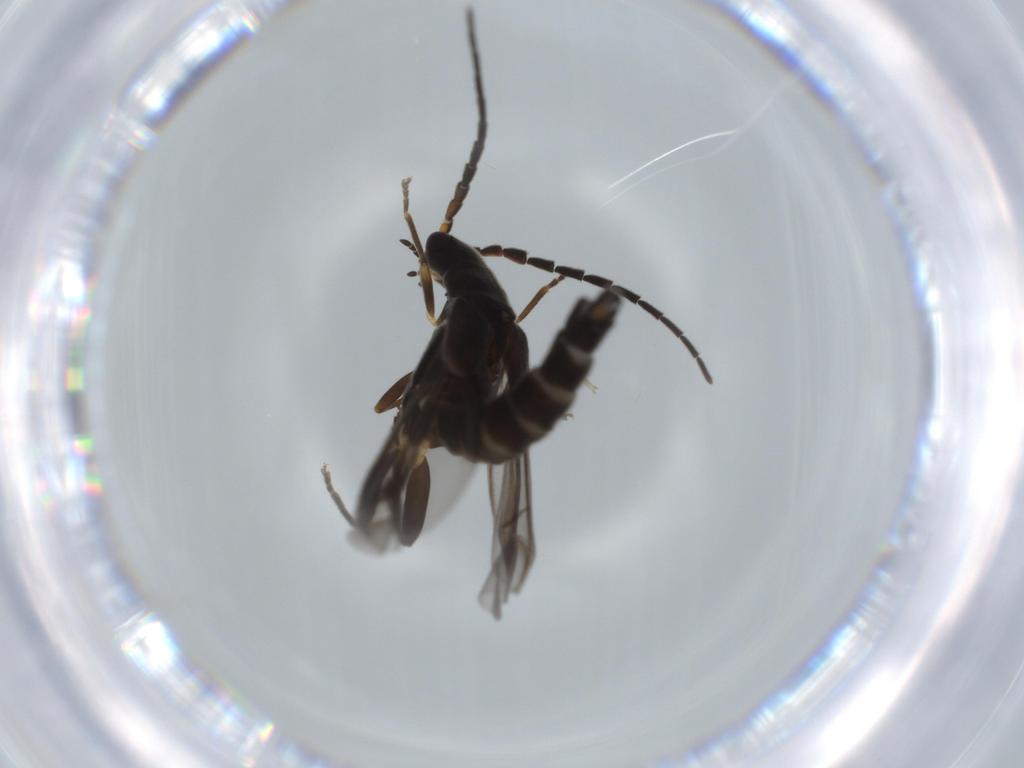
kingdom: Animalia
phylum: Arthropoda
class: Insecta
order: Coleoptera
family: Cantharidae
